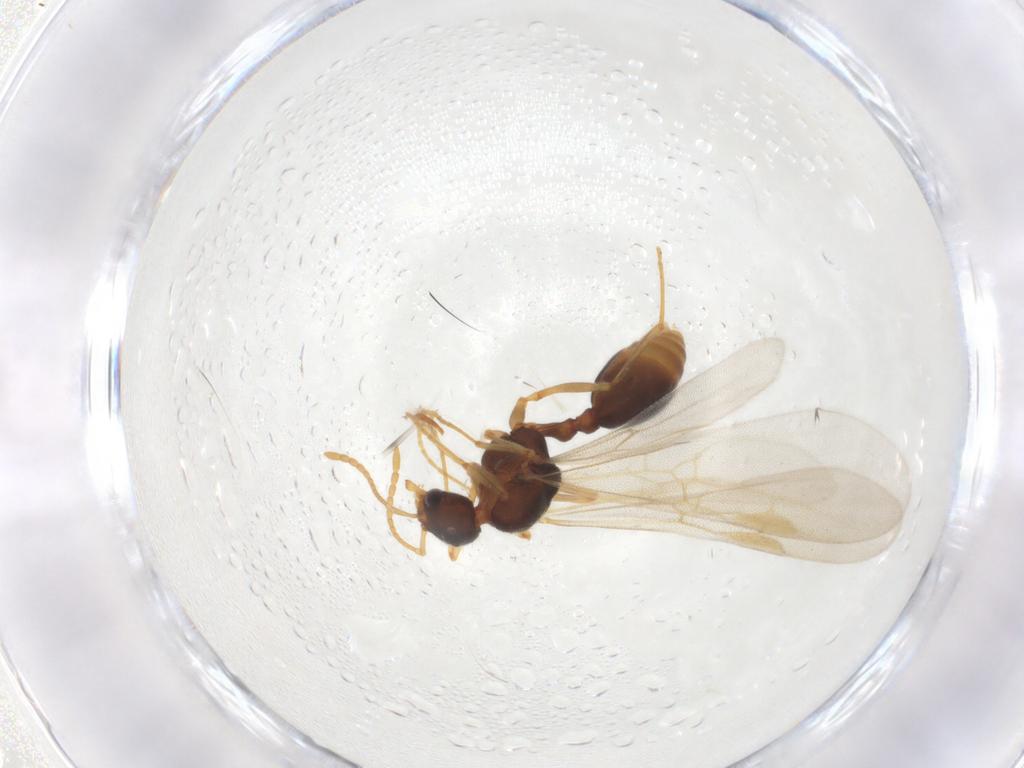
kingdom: Animalia
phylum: Arthropoda
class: Insecta
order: Hymenoptera
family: Formicidae
